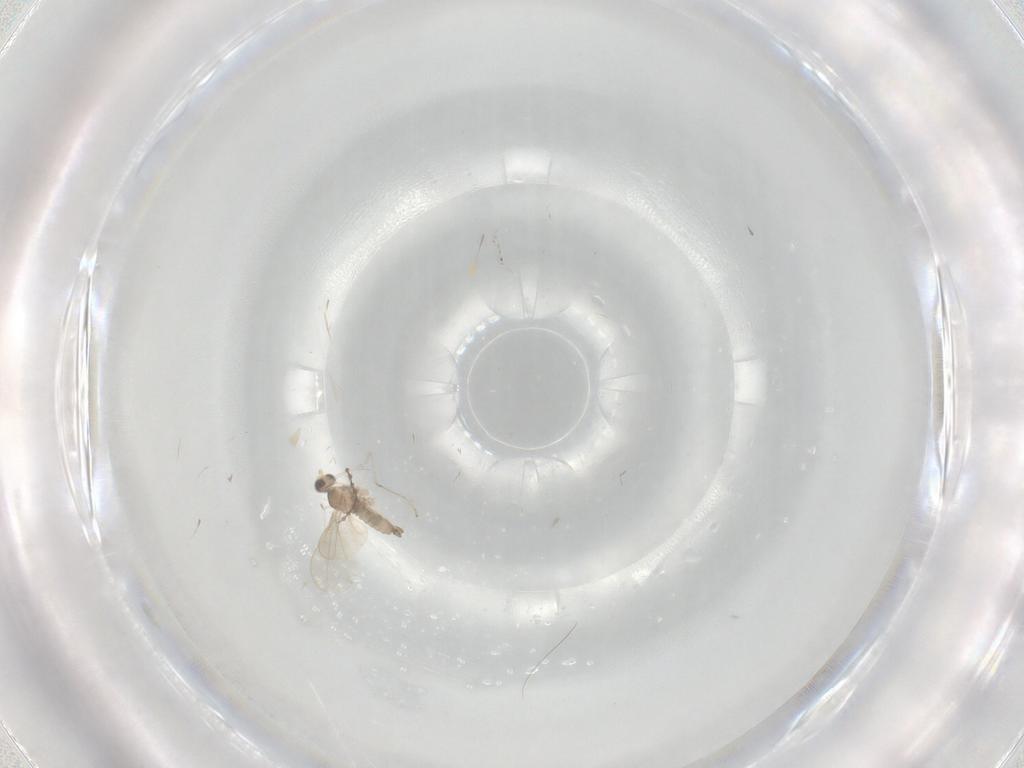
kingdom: Animalia
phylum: Arthropoda
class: Insecta
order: Diptera
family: Cecidomyiidae
